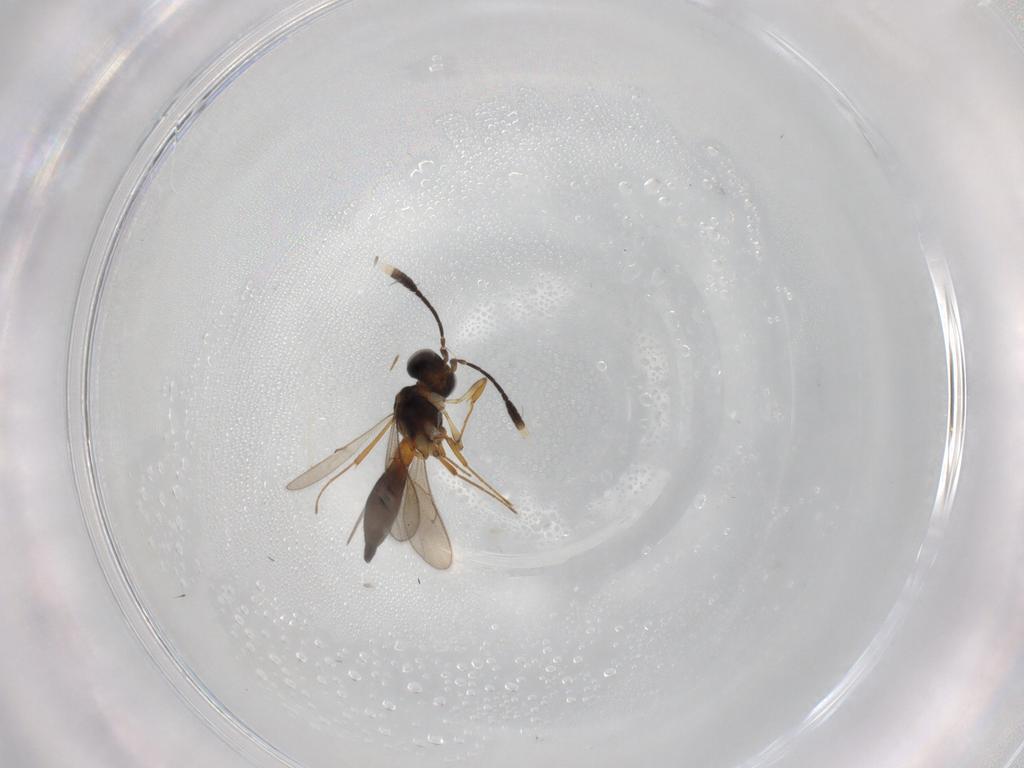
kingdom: Animalia
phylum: Arthropoda
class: Insecta
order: Hymenoptera
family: Scelionidae
